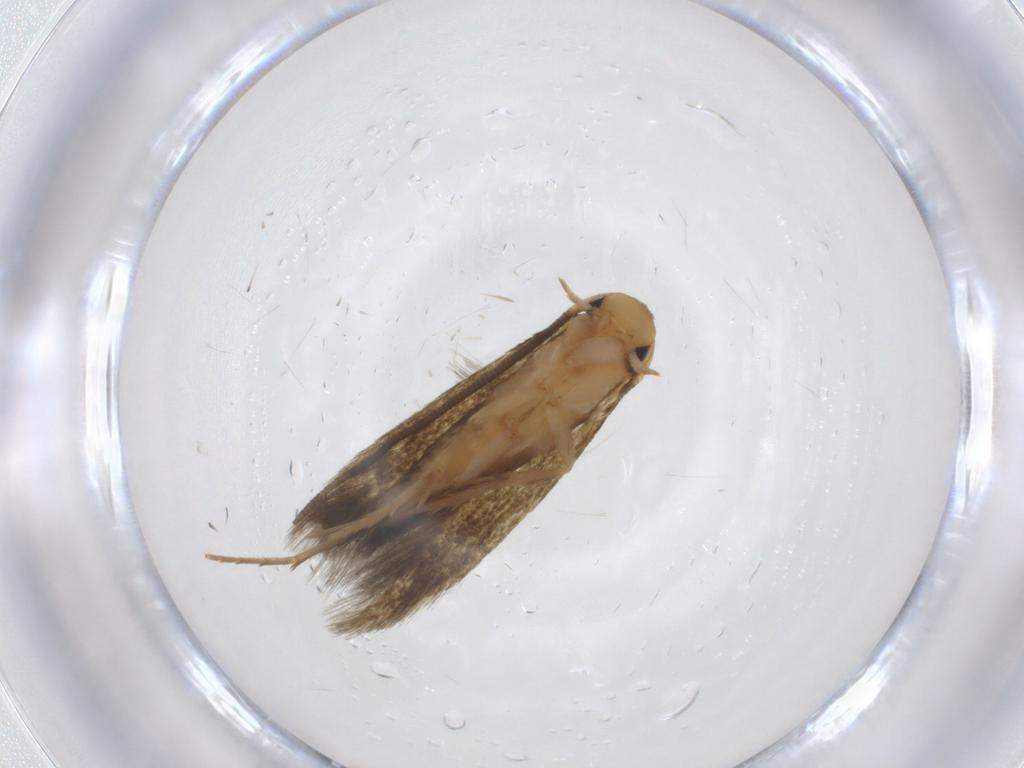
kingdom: Animalia
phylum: Arthropoda
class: Insecta
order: Lepidoptera
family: Tineidae
